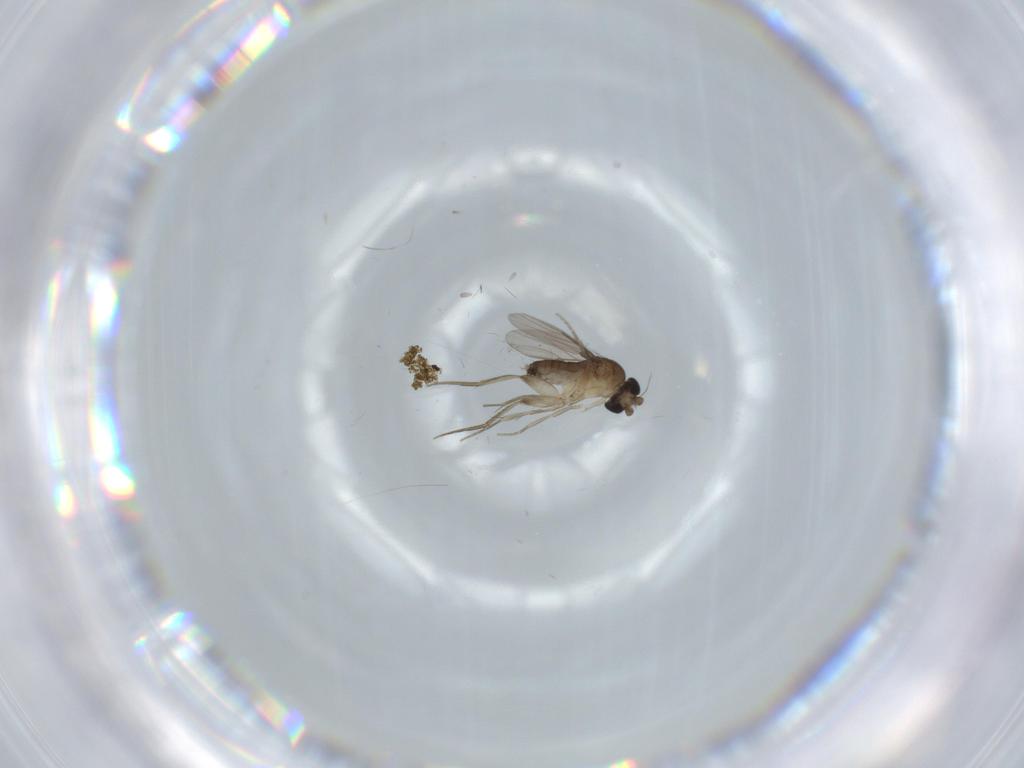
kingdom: Animalia
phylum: Arthropoda
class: Insecta
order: Diptera
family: Phoridae
